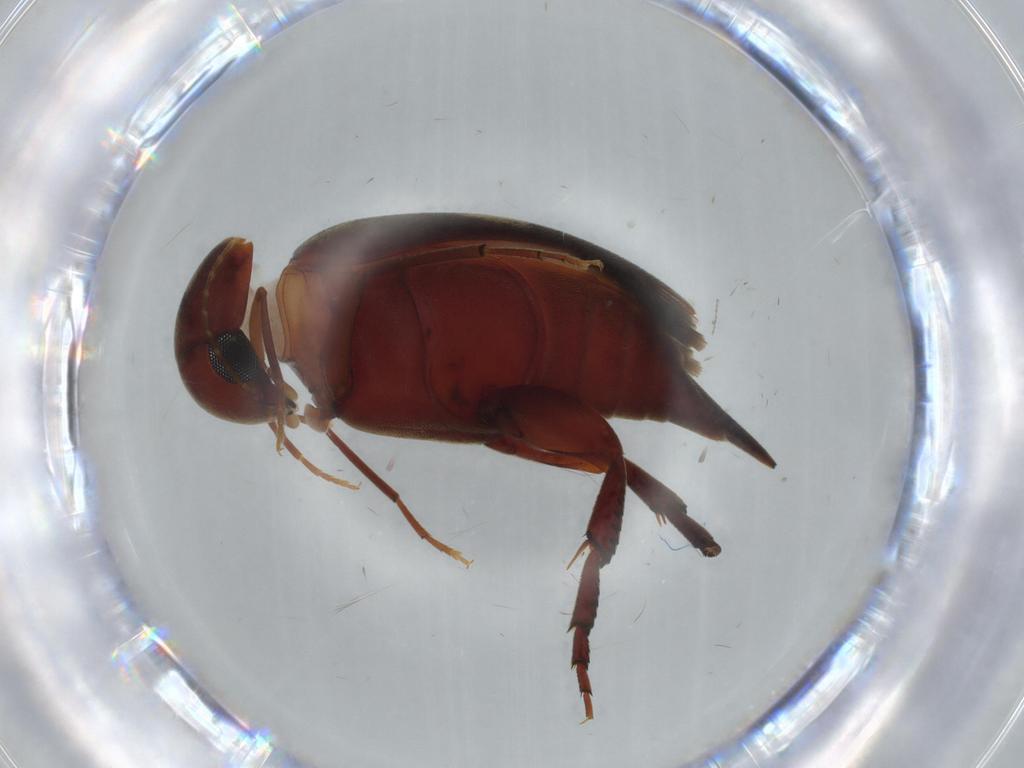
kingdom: Animalia
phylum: Arthropoda
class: Insecta
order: Coleoptera
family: Mordellidae
